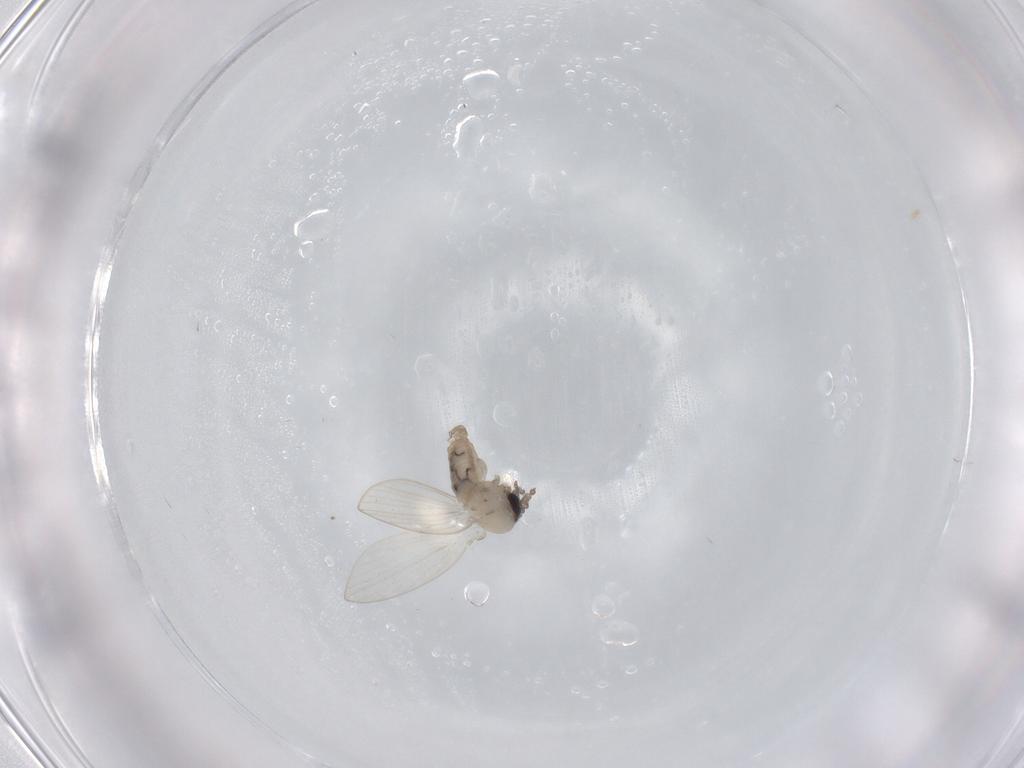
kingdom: Animalia
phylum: Arthropoda
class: Insecta
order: Diptera
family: Psychodidae
